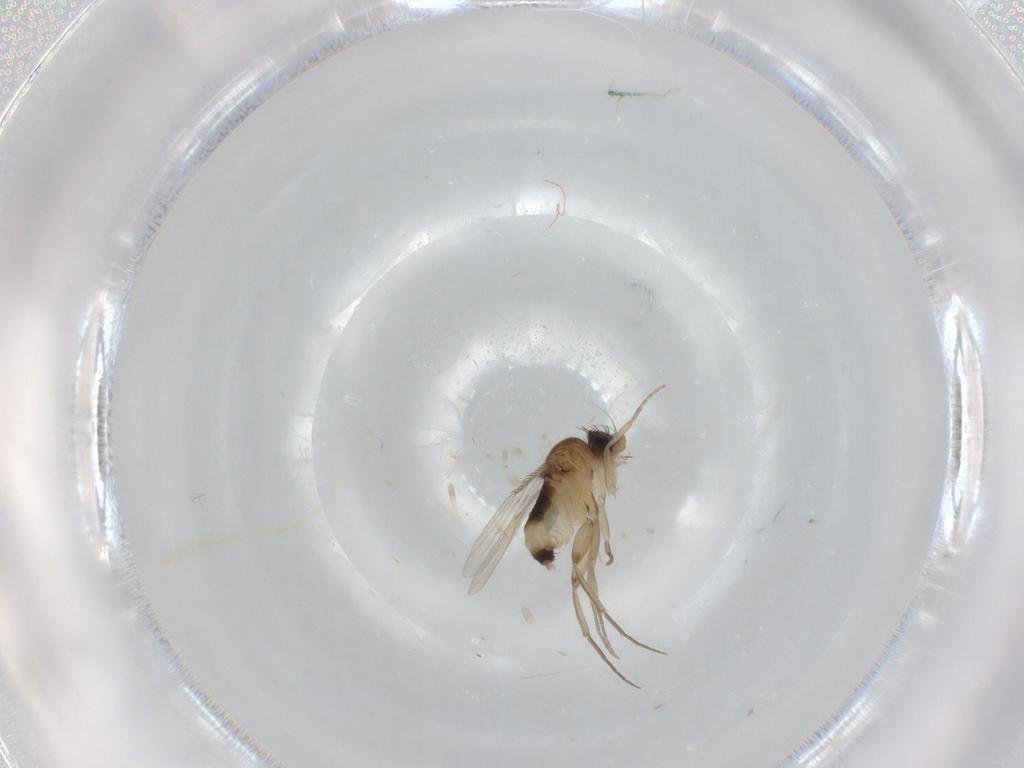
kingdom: Animalia
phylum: Arthropoda
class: Insecta
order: Diptera
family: Phoridae
